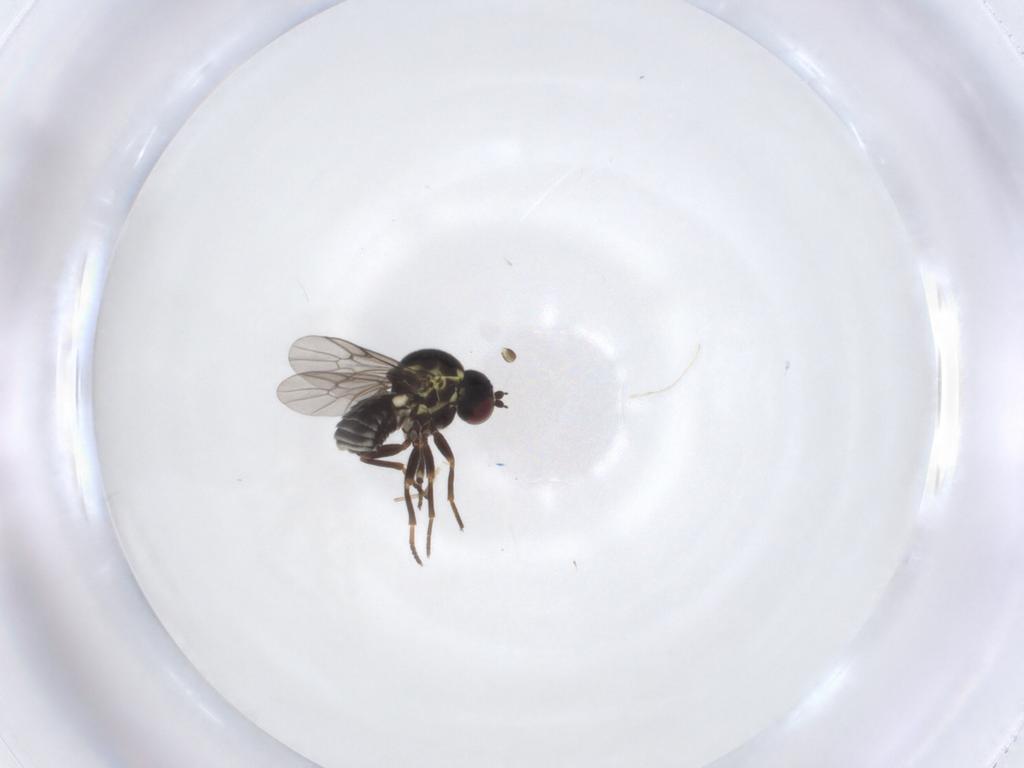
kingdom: Animalia
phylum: Arthropoda
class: Insecta
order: Diptera
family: Bombyliidae
